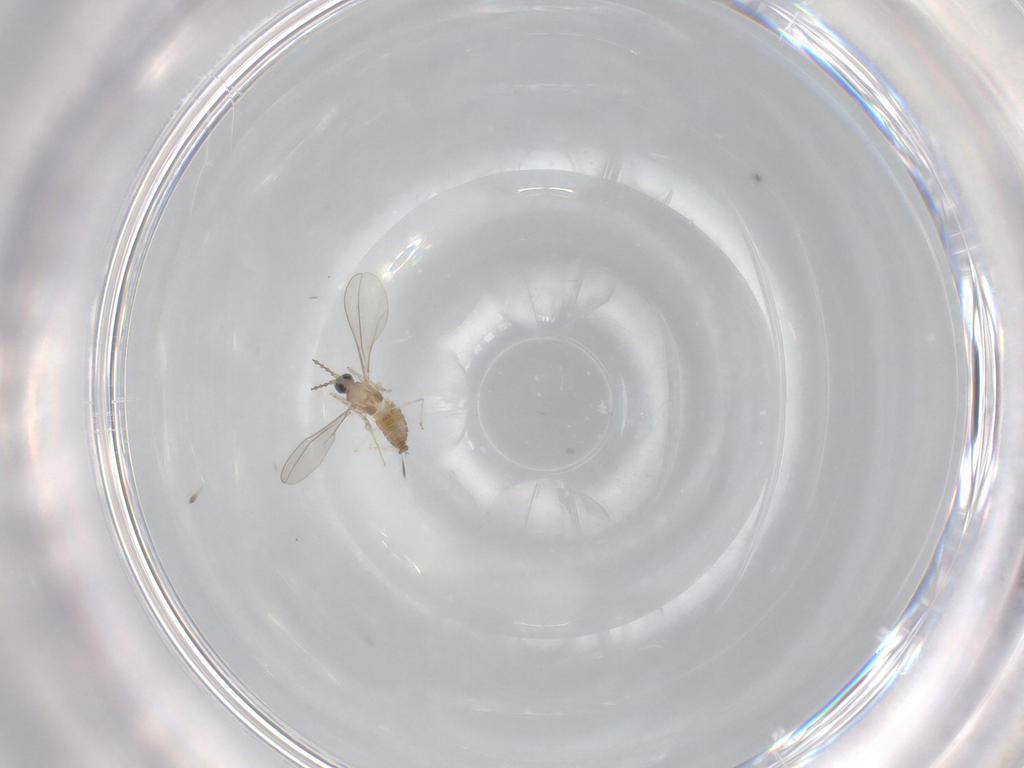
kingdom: Animalia
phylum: Arthropoda
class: Insecta
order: Diptera
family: Cecidomyiidae
